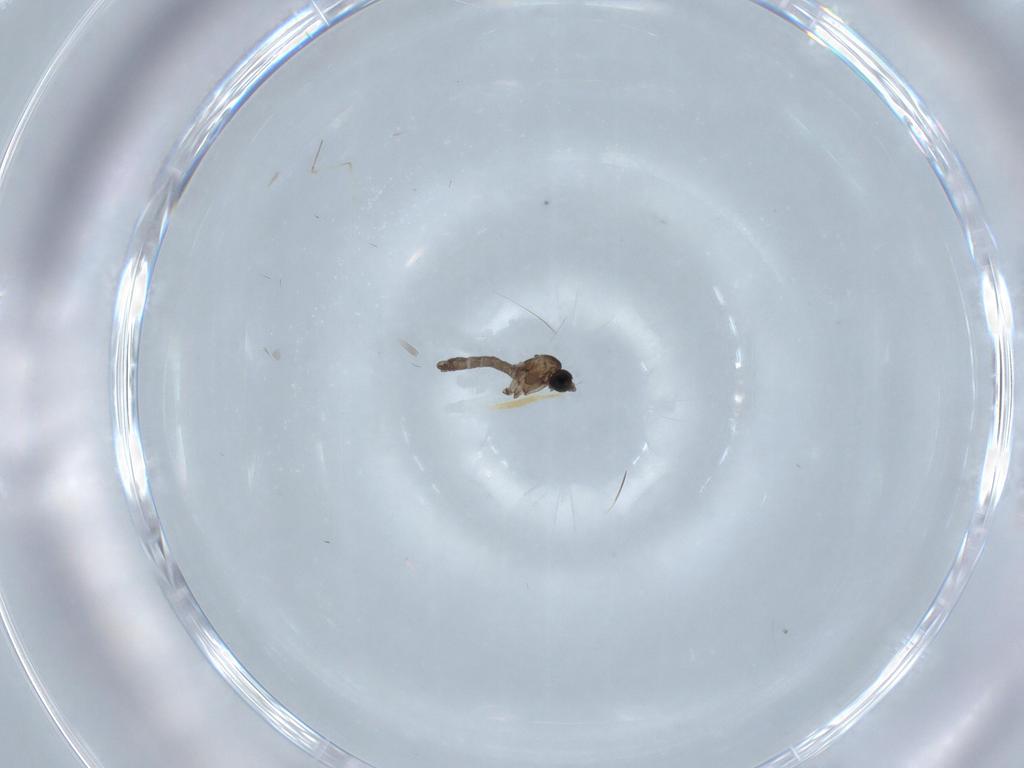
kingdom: Animalia
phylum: Arthropoda
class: Insecta
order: Diptera
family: Sciaridae
